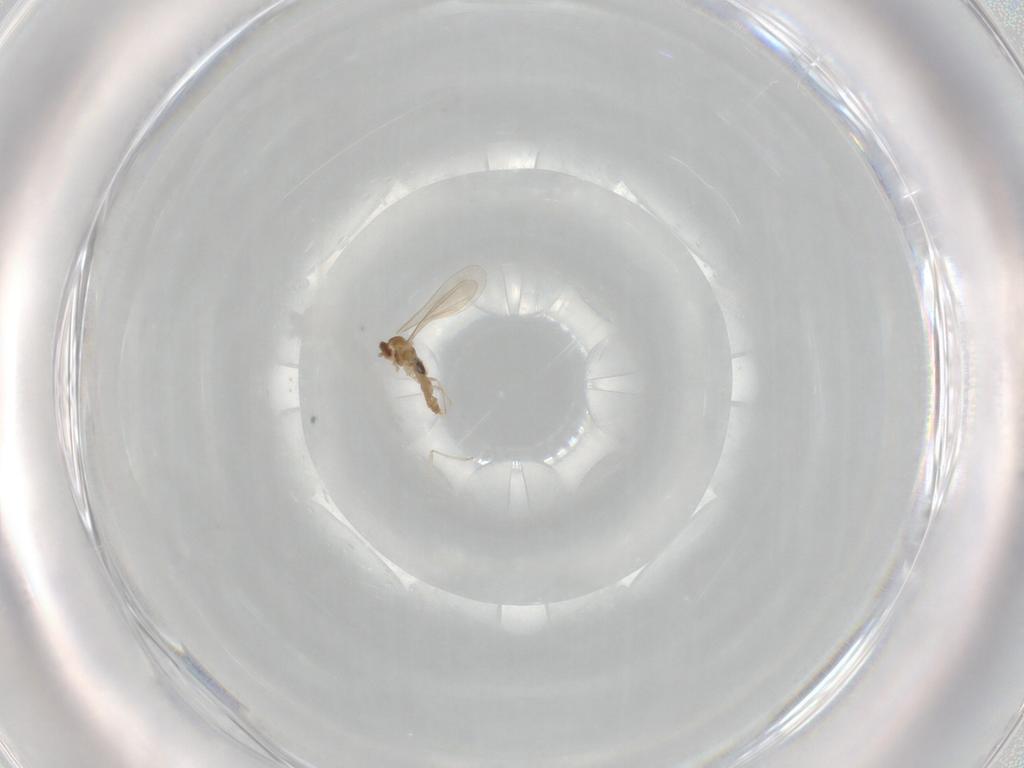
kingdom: Animalia
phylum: Arthropoda
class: Insecta
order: Diptera
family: Cecidomyiidae
